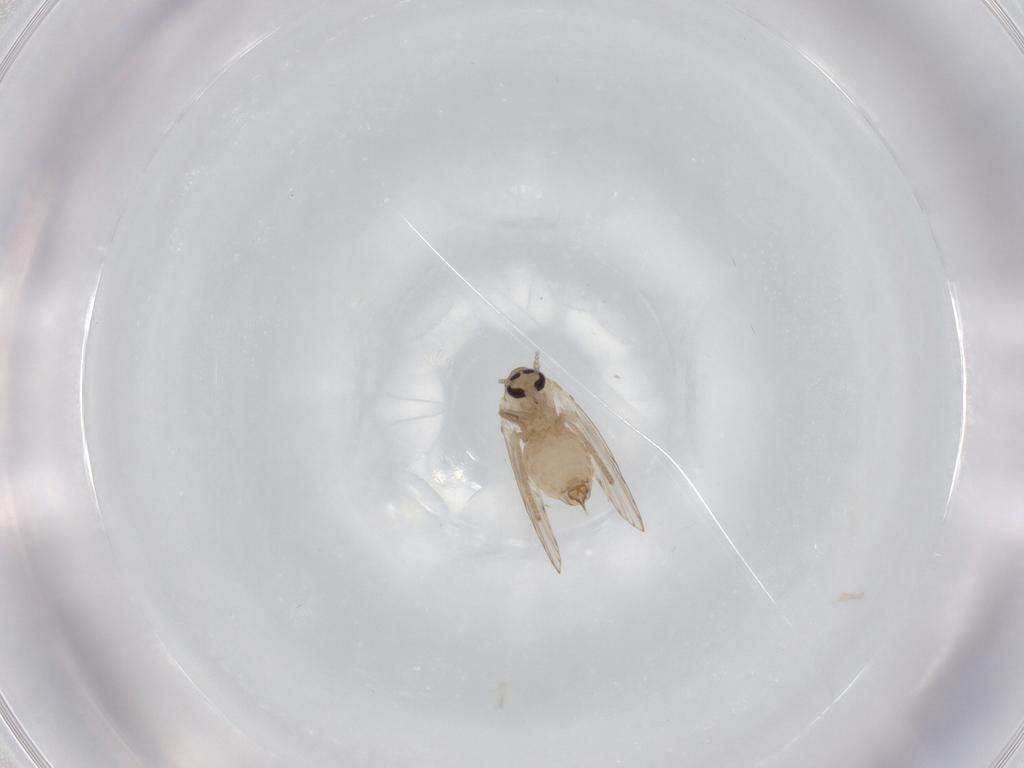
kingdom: Animalia
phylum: Arthropoda
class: Insecta
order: Diptera
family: Psychodidae
